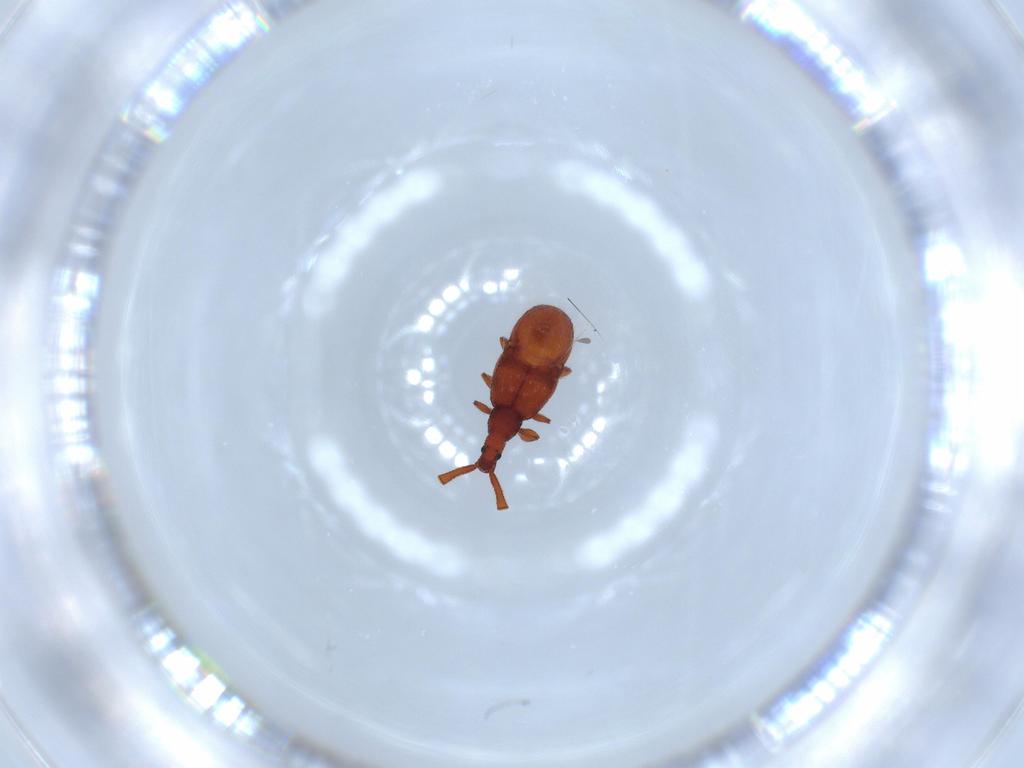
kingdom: Animalia
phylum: Arthropoda
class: Insecta
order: Coleoptera
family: Staphylinidae
